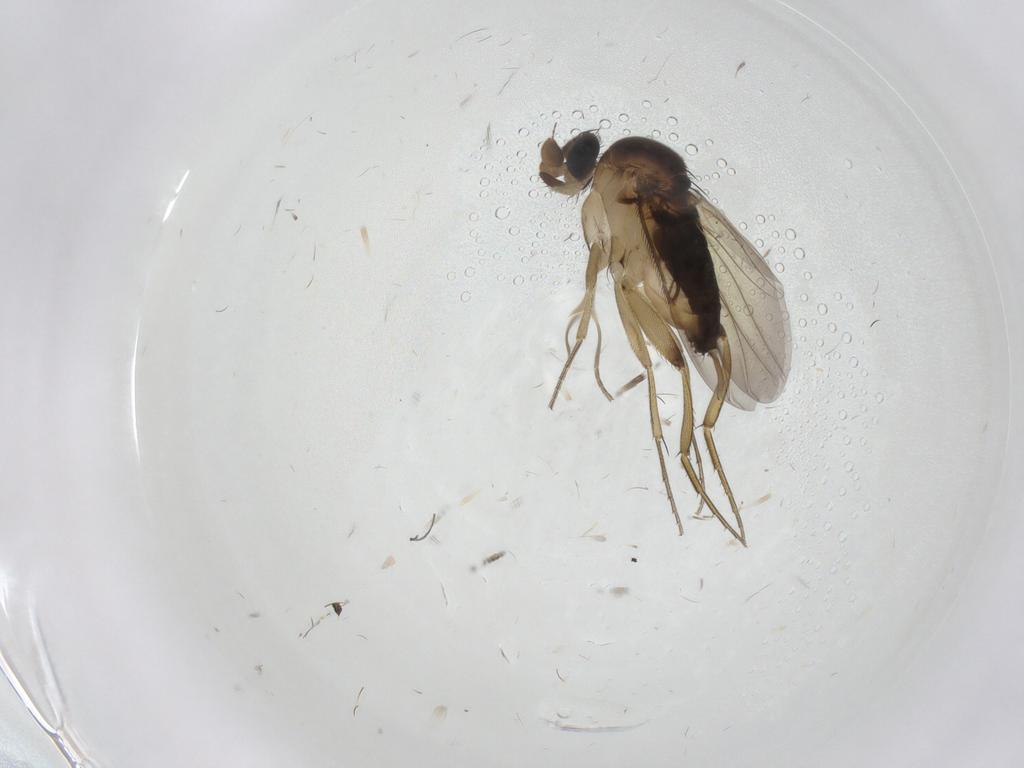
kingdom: Animalia
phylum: Arthropoda
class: Insecta
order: Diptera
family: Phoridae
